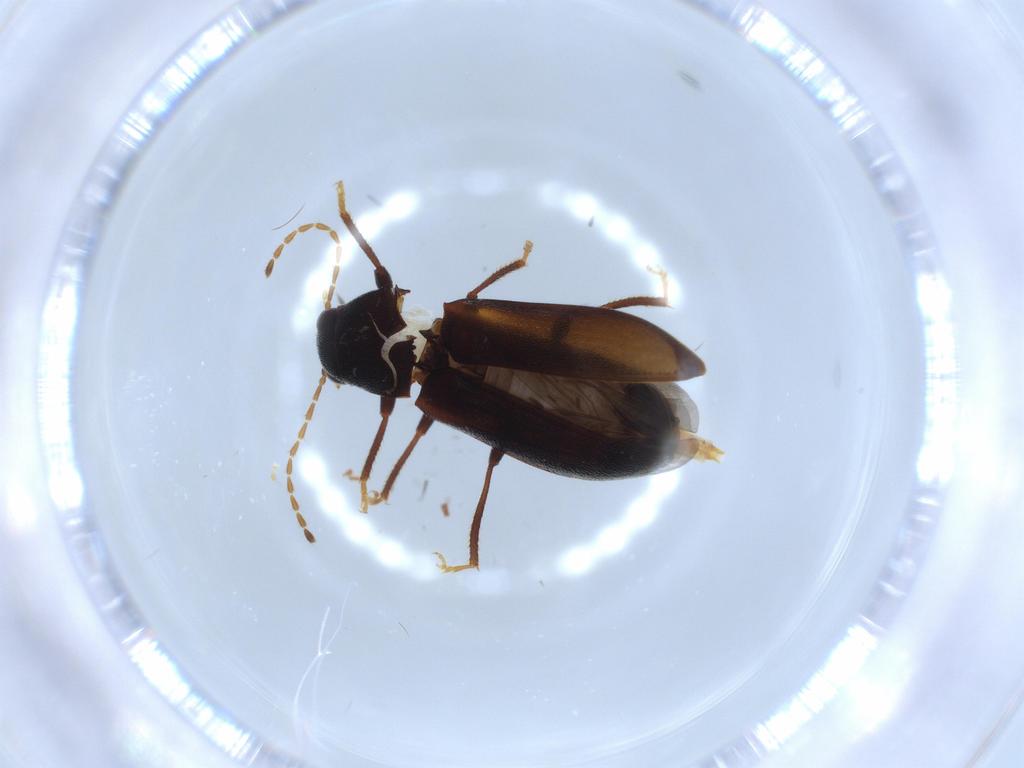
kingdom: Animalia
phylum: Arthropoda
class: Insecta
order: Coleoptera
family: Ptilodactylidae
